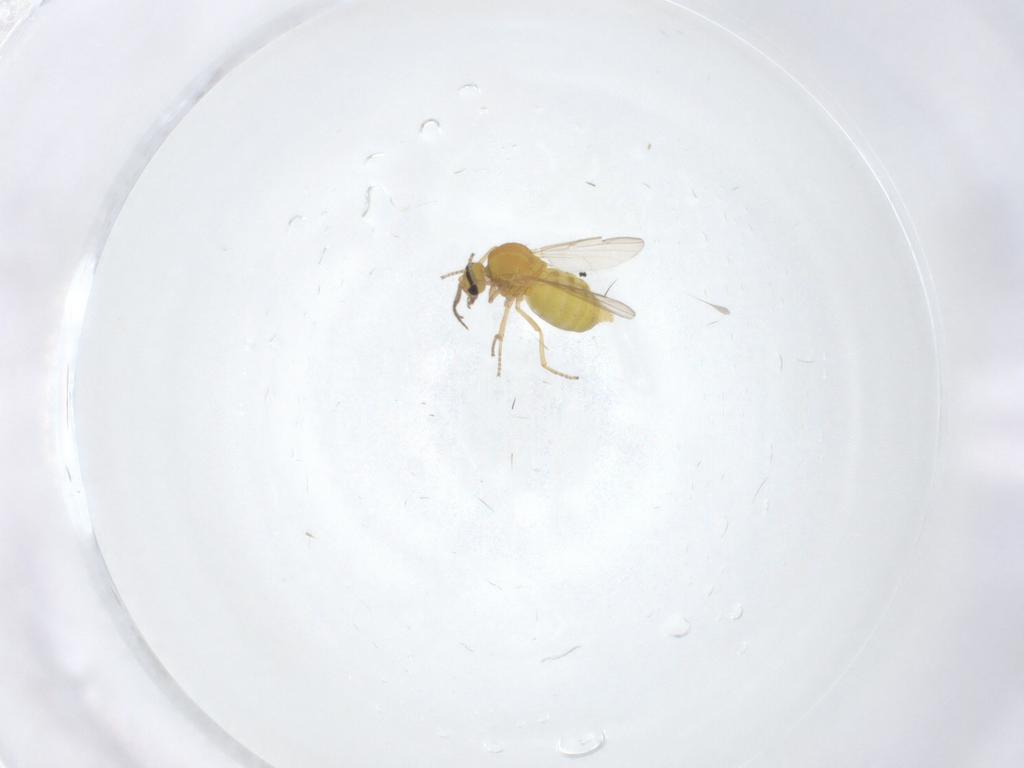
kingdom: Animalia
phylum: Arthropoda
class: Insecta
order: Diptera
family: Ceratopogonidae
